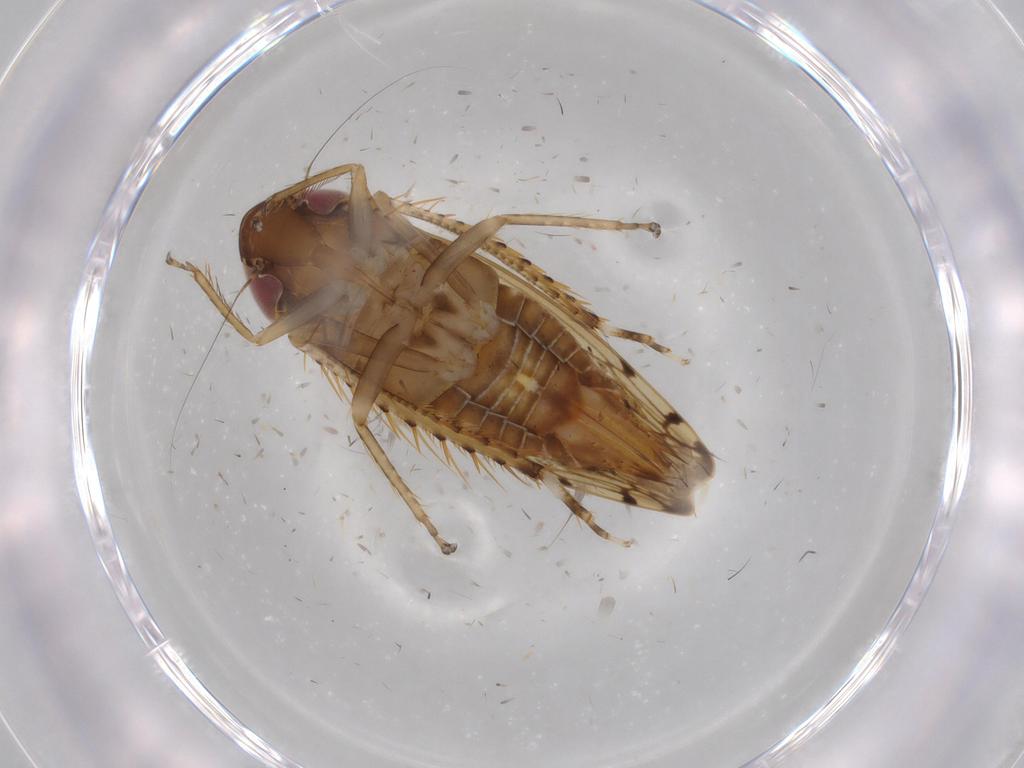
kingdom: Animalia
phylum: Arthropoda
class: Insecta
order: Hemiptera
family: Cicadellidae
